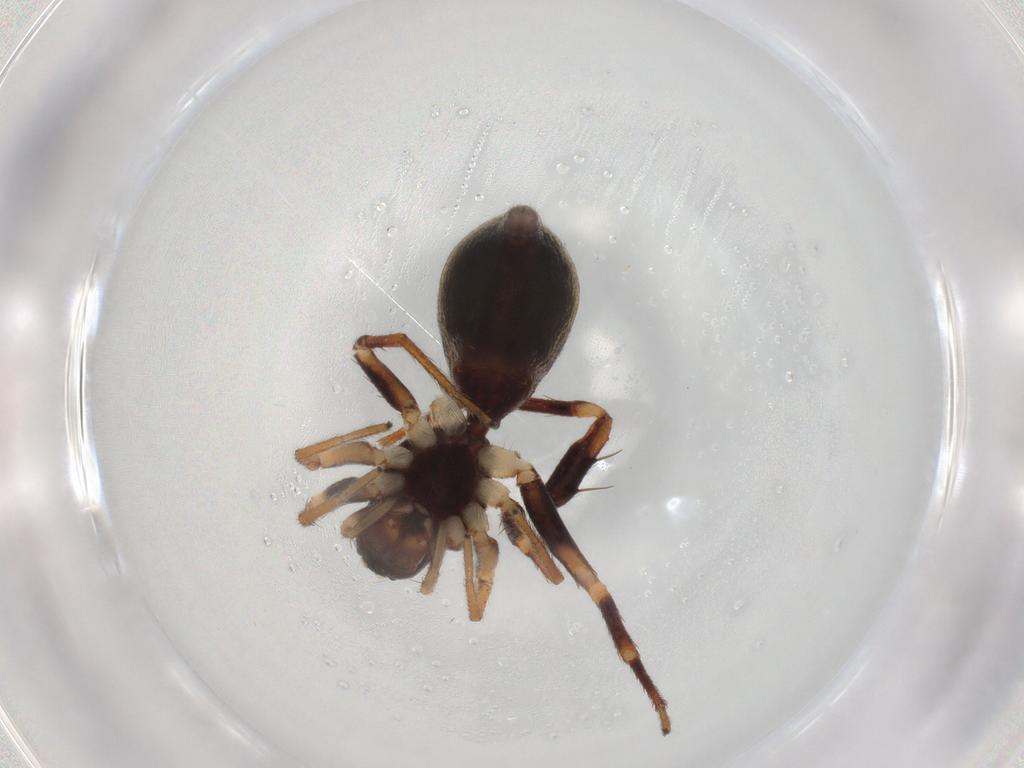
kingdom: Animalia
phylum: Arthropoda
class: Arachnida
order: Araneae
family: Corinnidae
